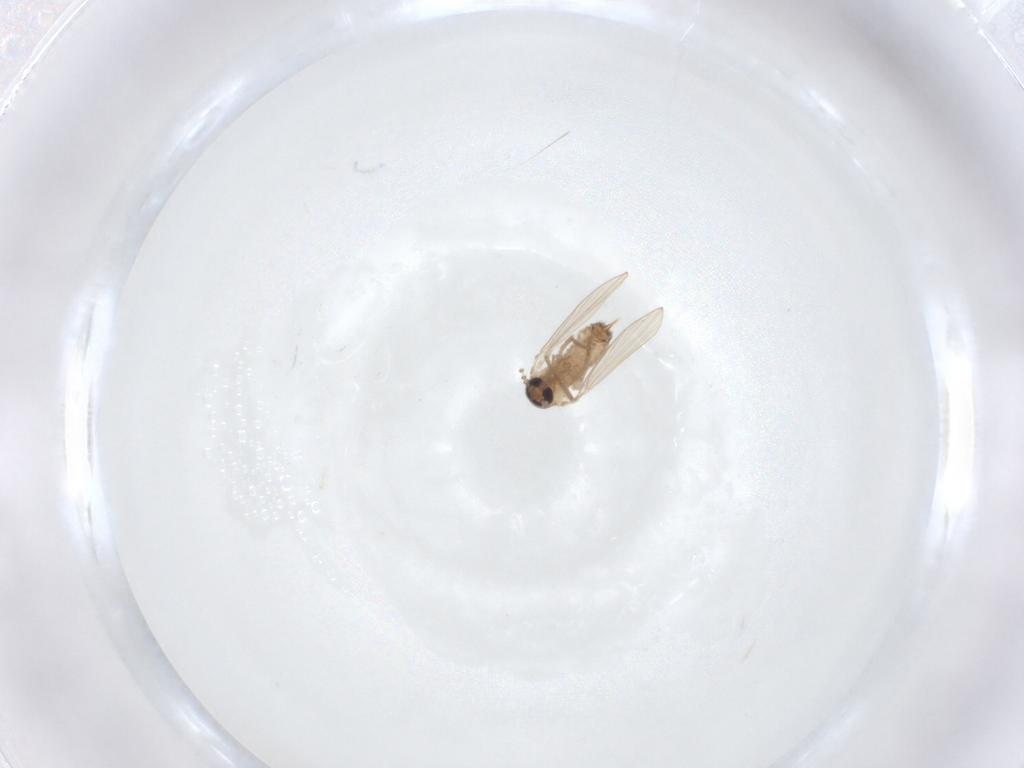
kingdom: Animalia
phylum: Arthropoda
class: Insecta
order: Diptera
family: Psychodidae
